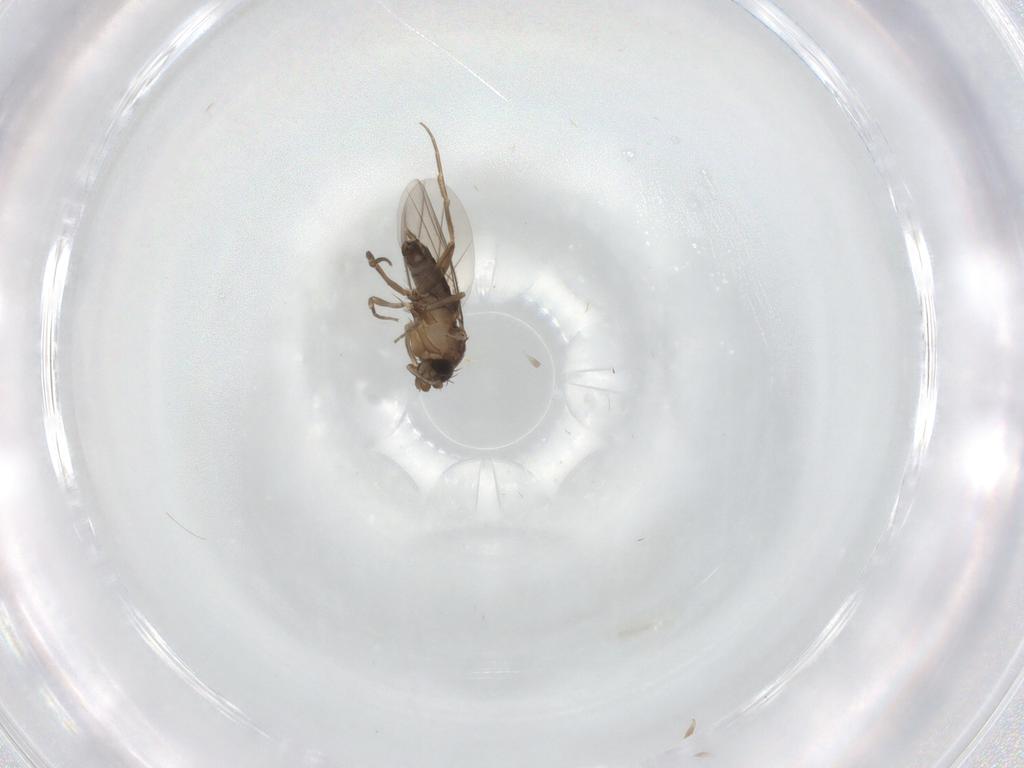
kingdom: Animalia
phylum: Arthropoda
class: Insecta
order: Diptera
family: Phoridae
